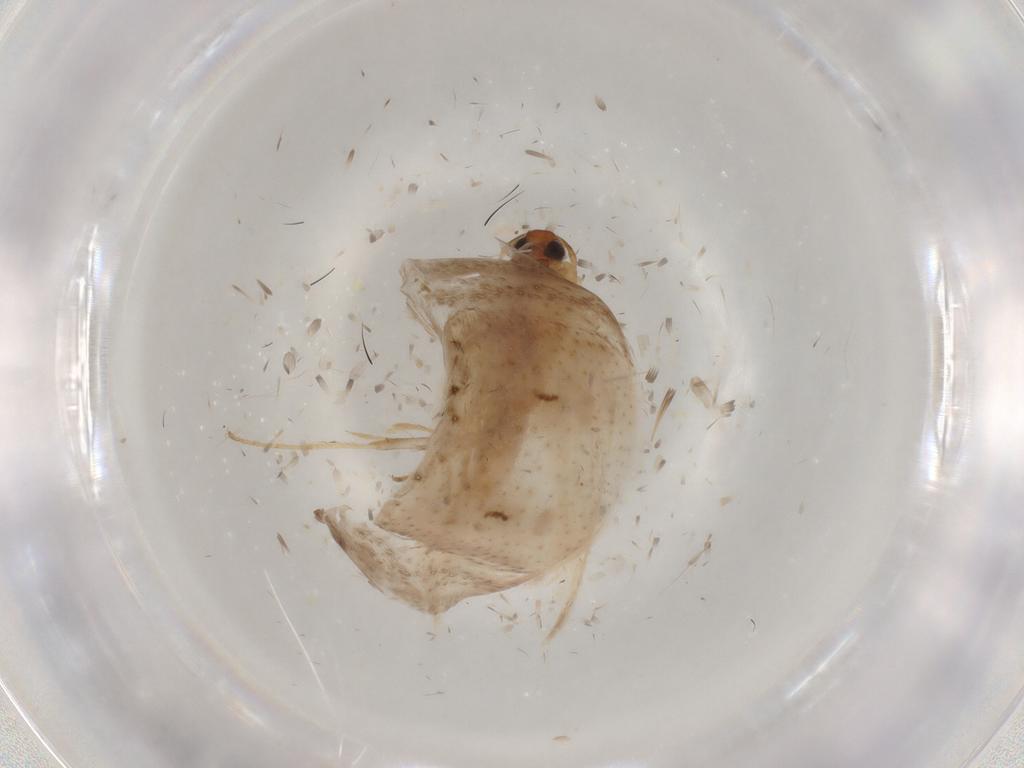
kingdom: Animalia
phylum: Arthropoda
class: Insecta
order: Lepidoptera
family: Gelechiidae
